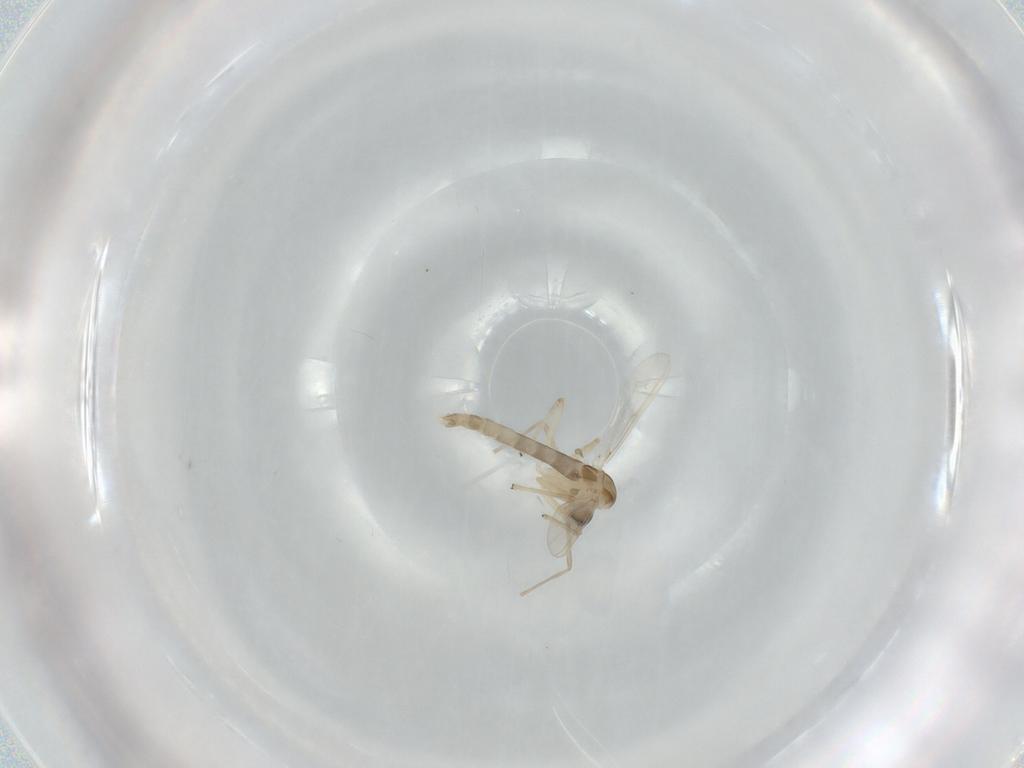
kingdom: Animalia
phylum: Arthropoda
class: Insecta
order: Diptera
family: Chironomidae
